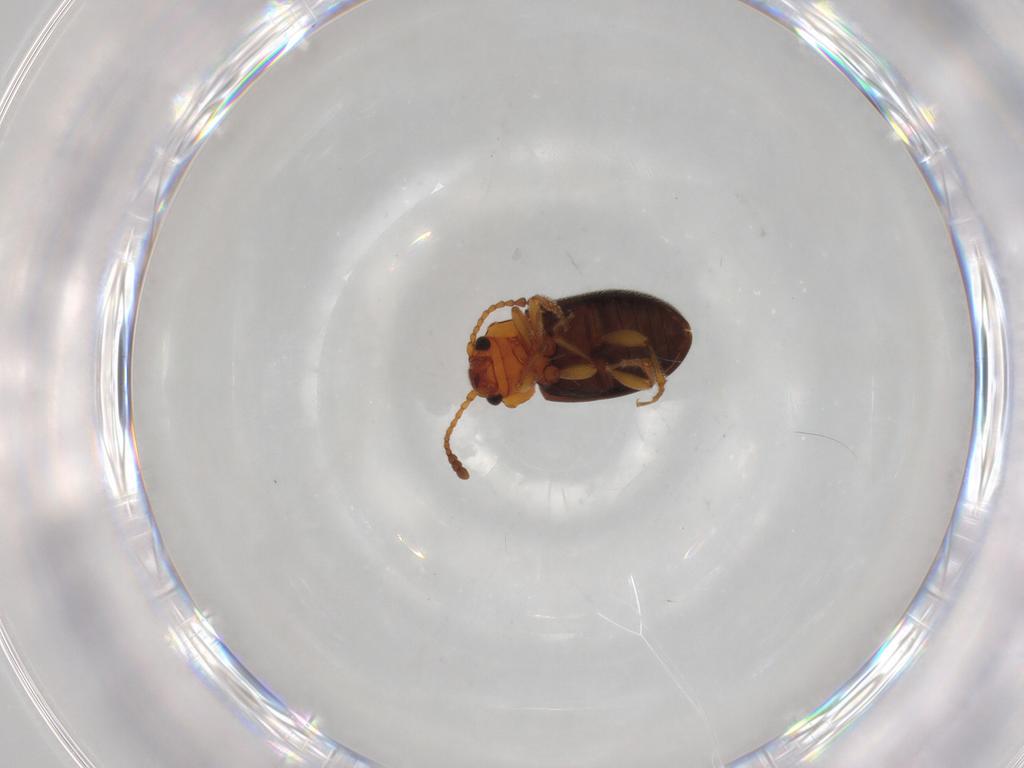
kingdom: Animalia
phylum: Arthropoda
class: Insecta
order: Coleoptera
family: Cryptophagidae
